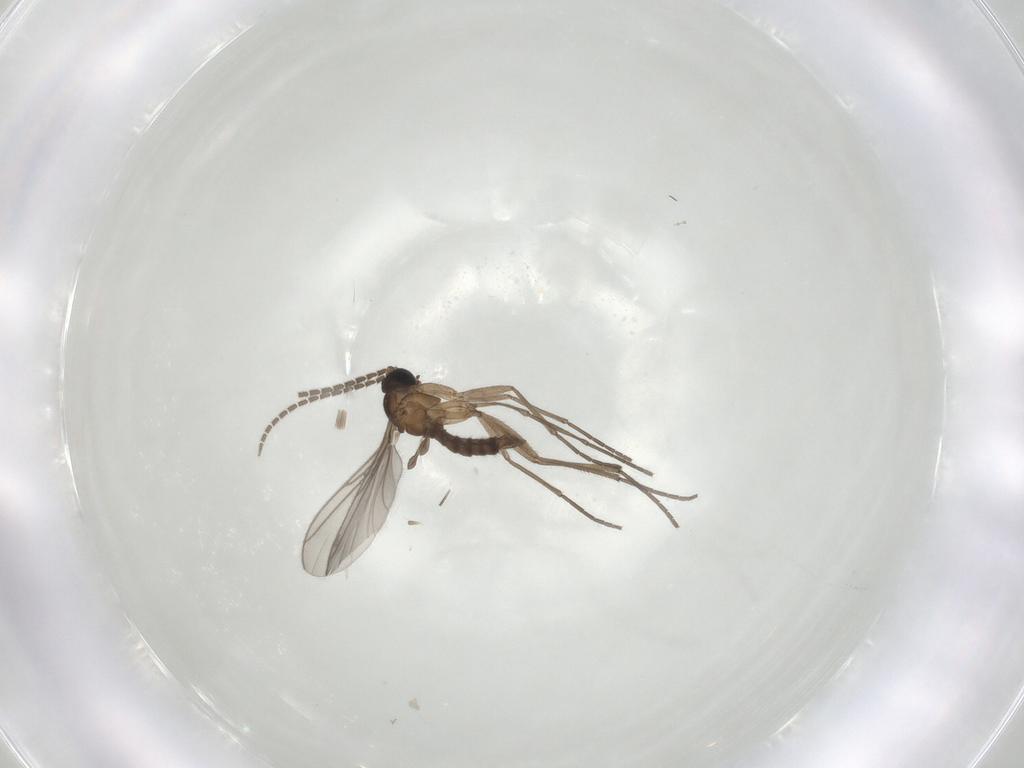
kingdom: Animalia
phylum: Arthropoda
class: Insecta
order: Diptera
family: Sciaridae
